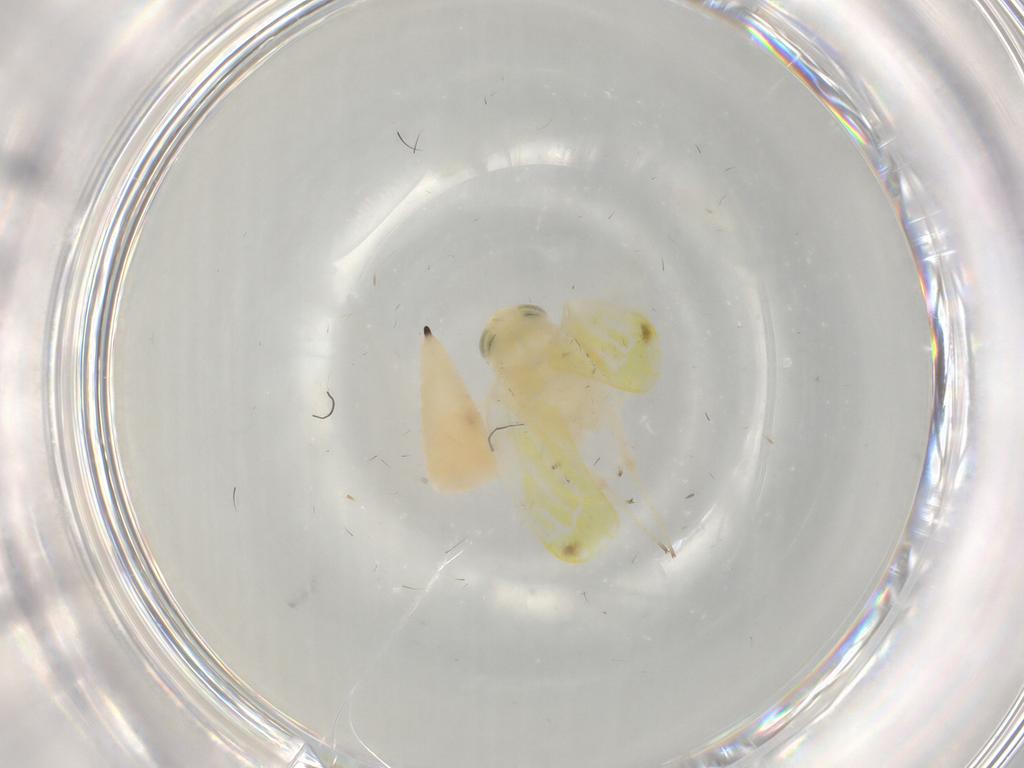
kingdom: Animalia
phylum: Arthropoda
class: Insecta
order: Hemiptera
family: Cicadellidae
